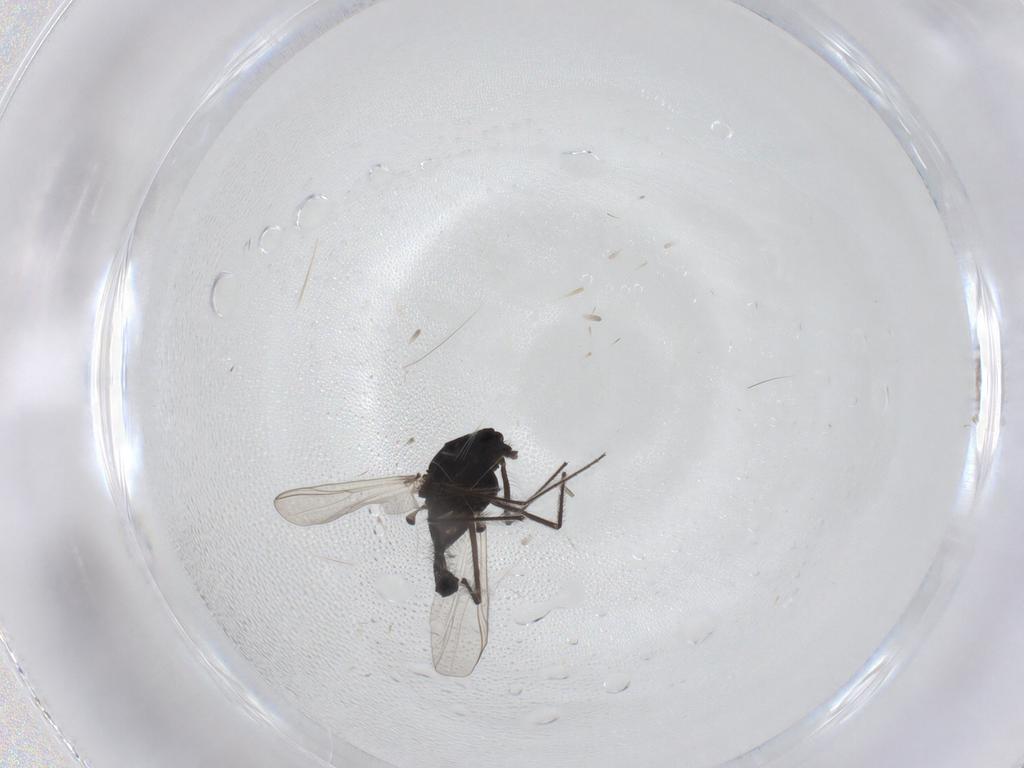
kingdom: Animalia
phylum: Arthropoda
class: Insecta
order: Diptera
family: Chironomidae
